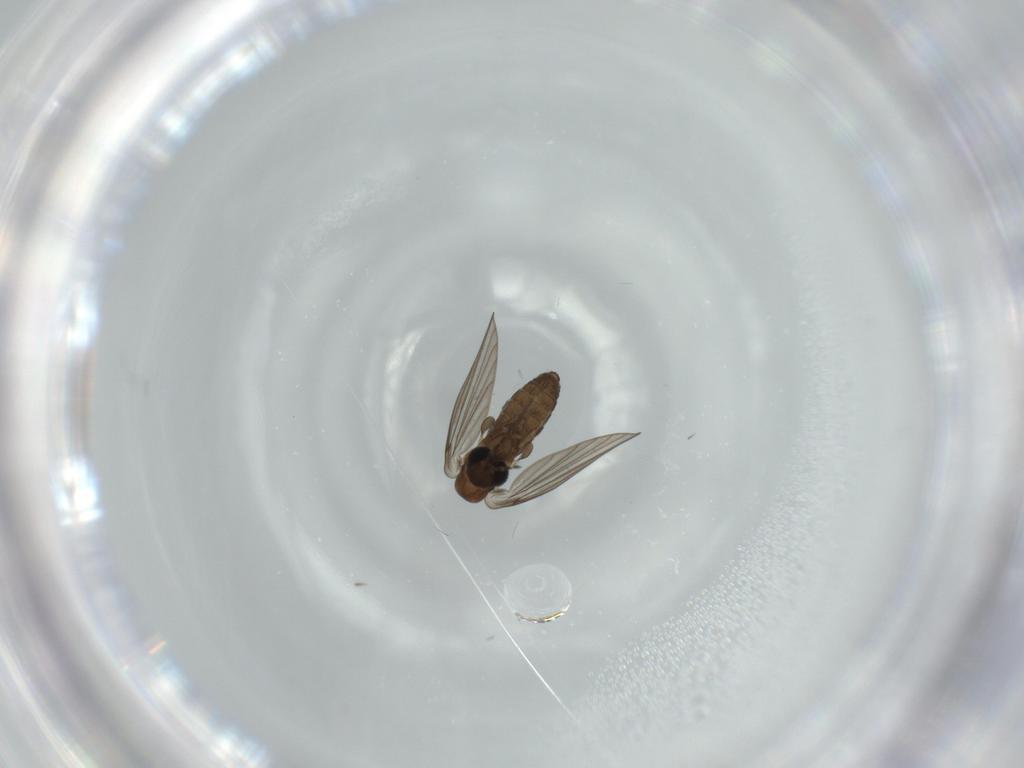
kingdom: Animalia
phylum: Arthropoda
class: Insecta
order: Diptera
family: Psychodidae
